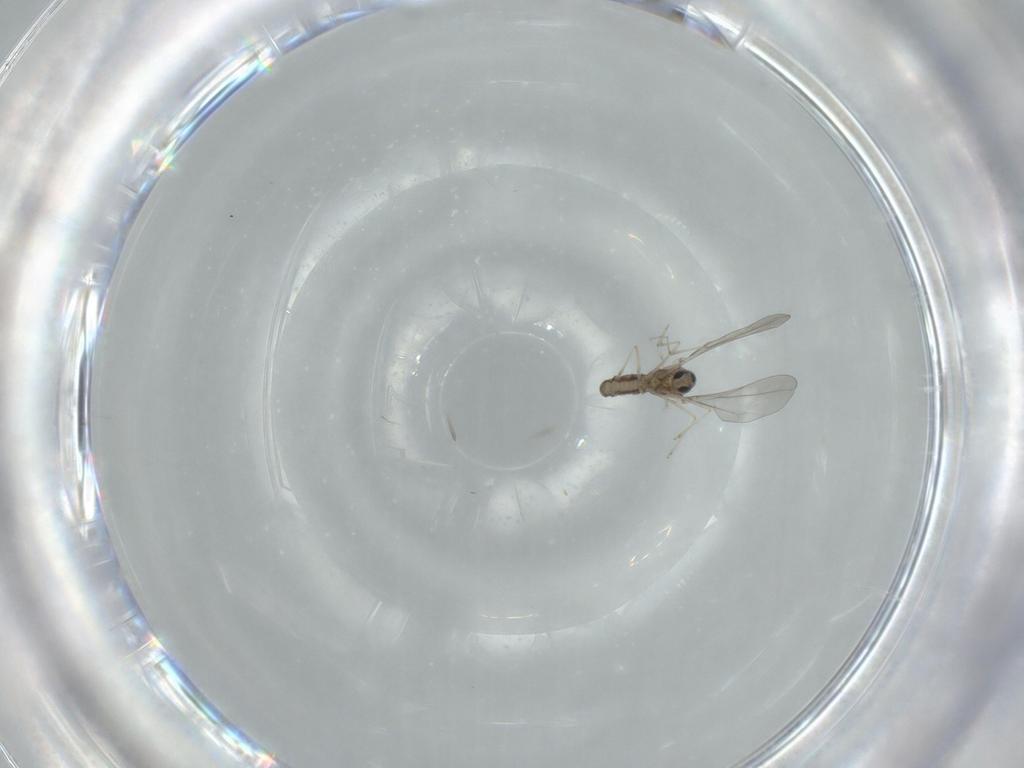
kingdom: Animalia
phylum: Arthropoda
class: Insecta
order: Diptera
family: Cecidomyiidae
